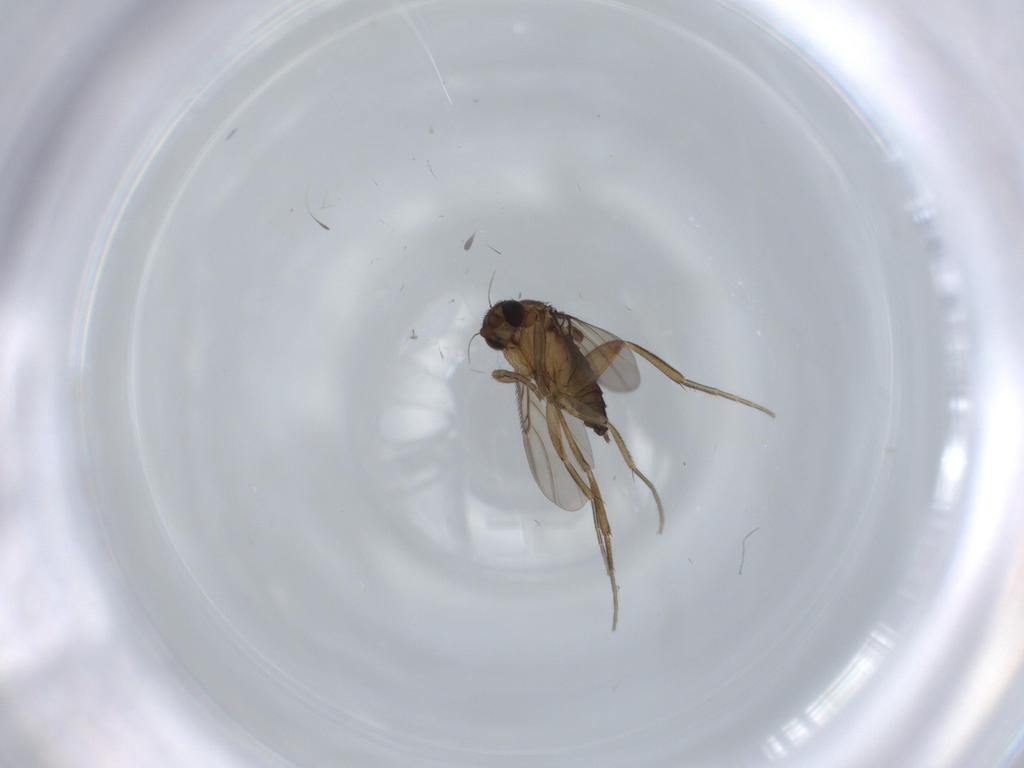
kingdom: Animalia
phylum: Arthropoda
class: Insecta
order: Diptera
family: Phoridae
